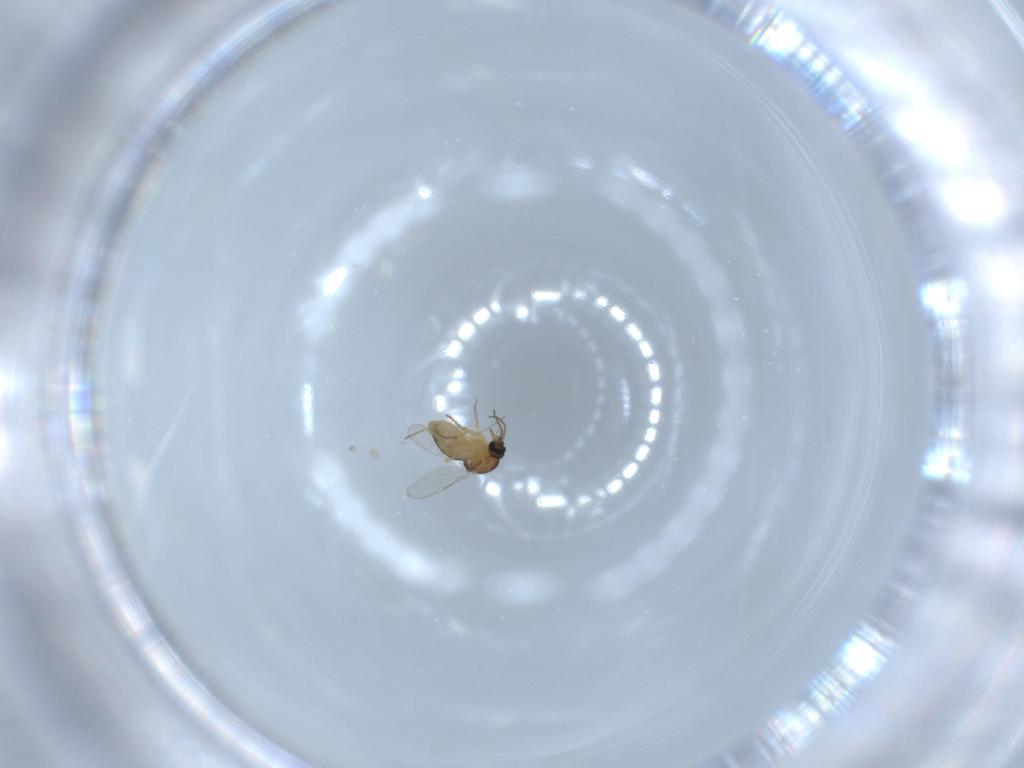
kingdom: Animalia
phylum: Arthropoda
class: Insecta
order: Diptera
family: Ceratopogonidae
